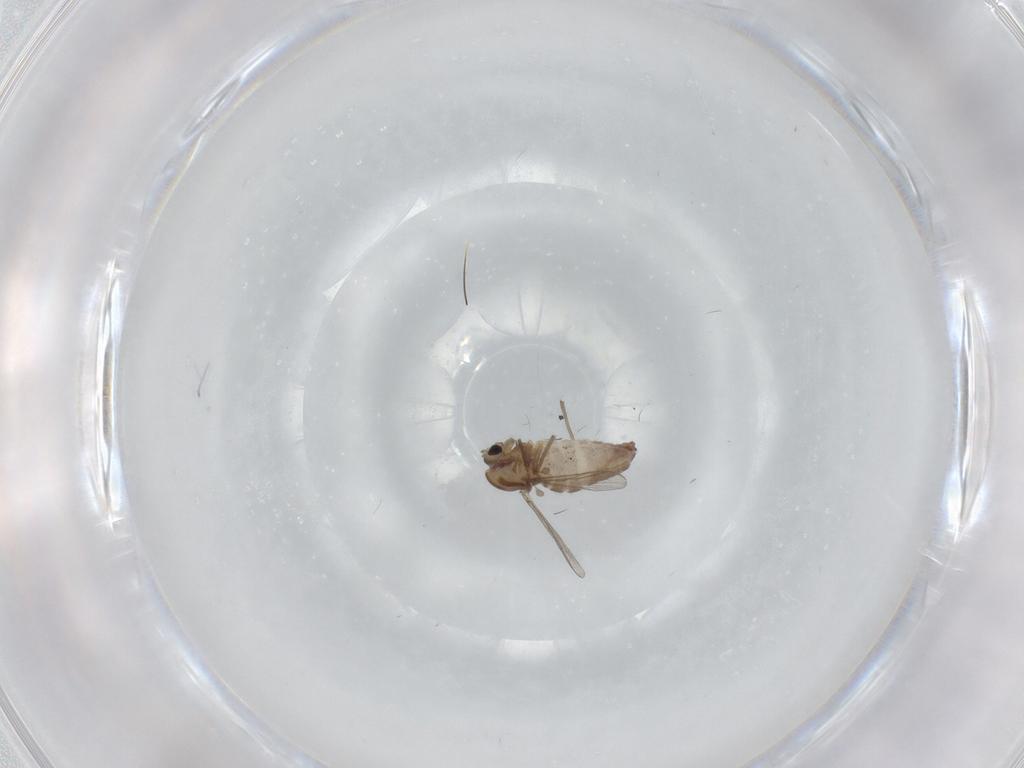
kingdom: Animalia
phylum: Arthropoda
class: Insecta
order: Diptera
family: Chironomidae
